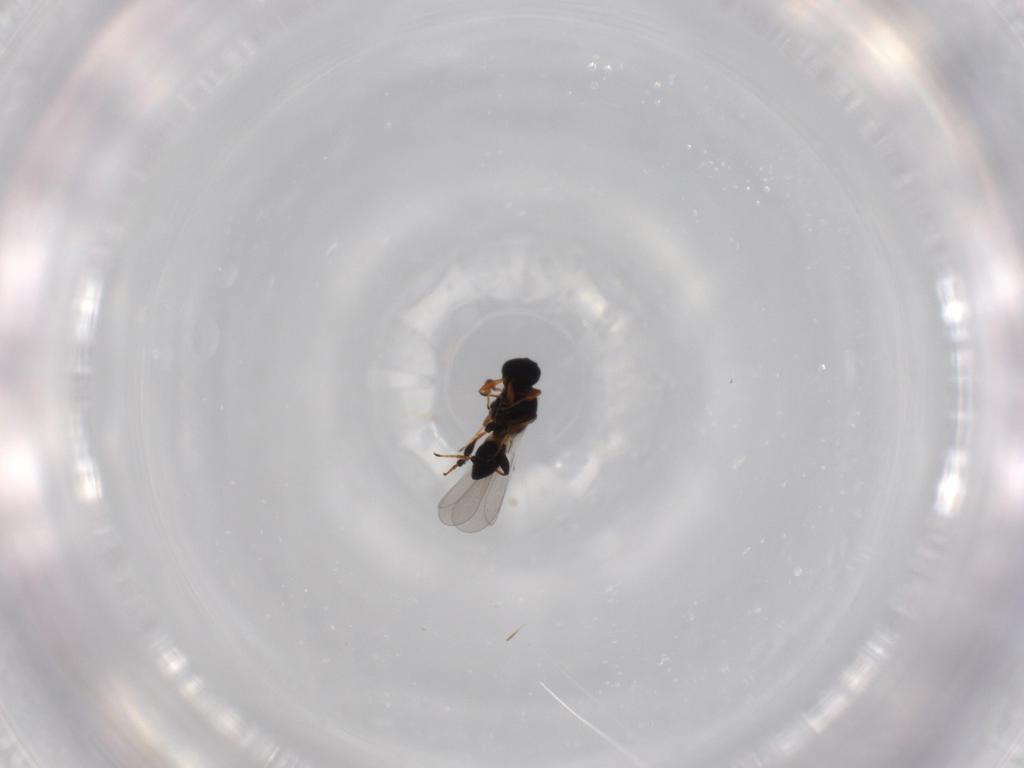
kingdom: Animalia
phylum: Arthropoda
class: Insecta
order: Hymenoptera
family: Platygastridae
